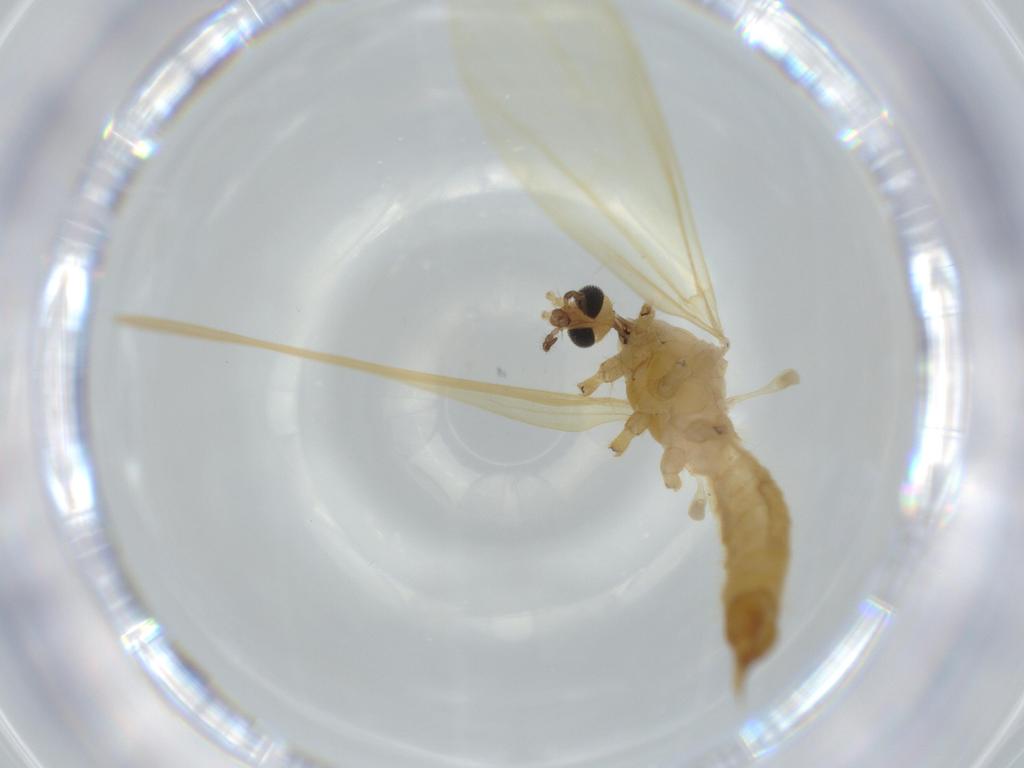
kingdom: Animalia
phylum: Arthropoda
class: Insecta
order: Diptera
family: Limoniidae
